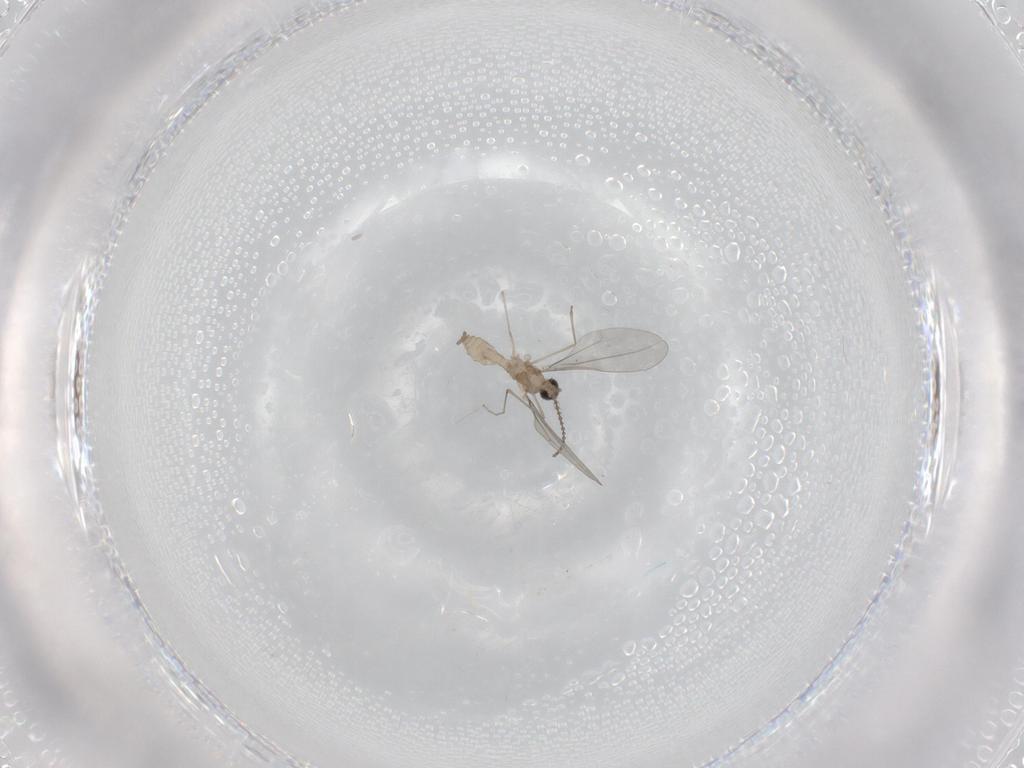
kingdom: Animalia
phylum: Arthropoda
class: Insecta
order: Diptera
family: Cecidomyiidae
